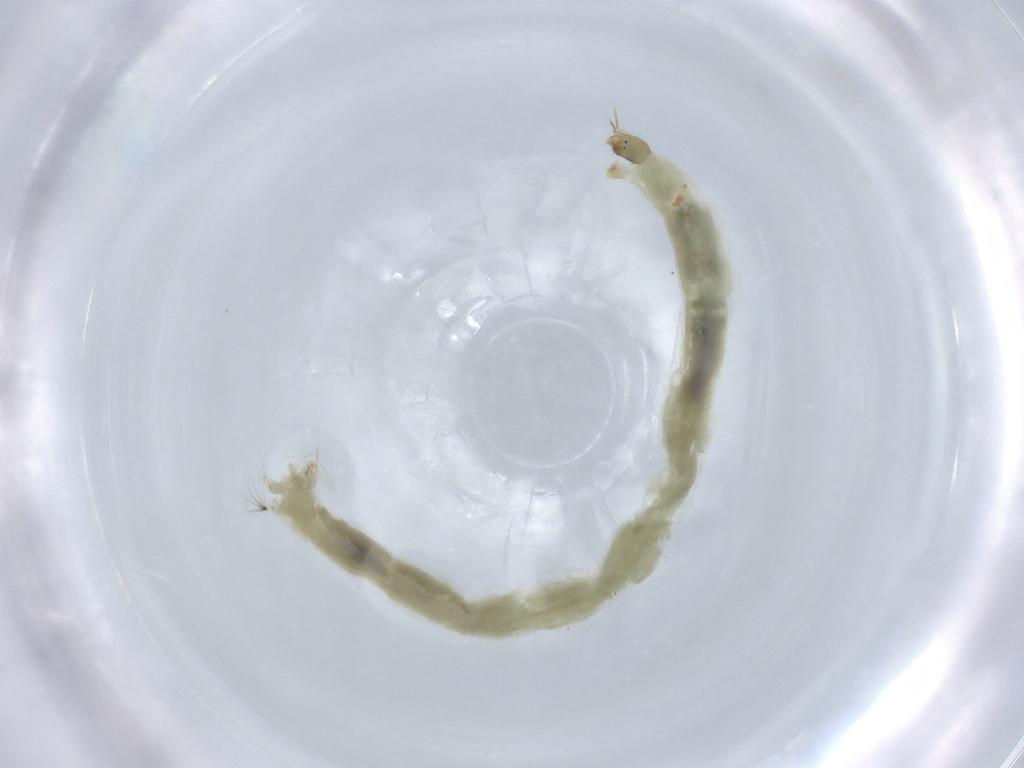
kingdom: Animalia
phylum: Arthropoda
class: Insecta
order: Diptera
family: Chironomidae
